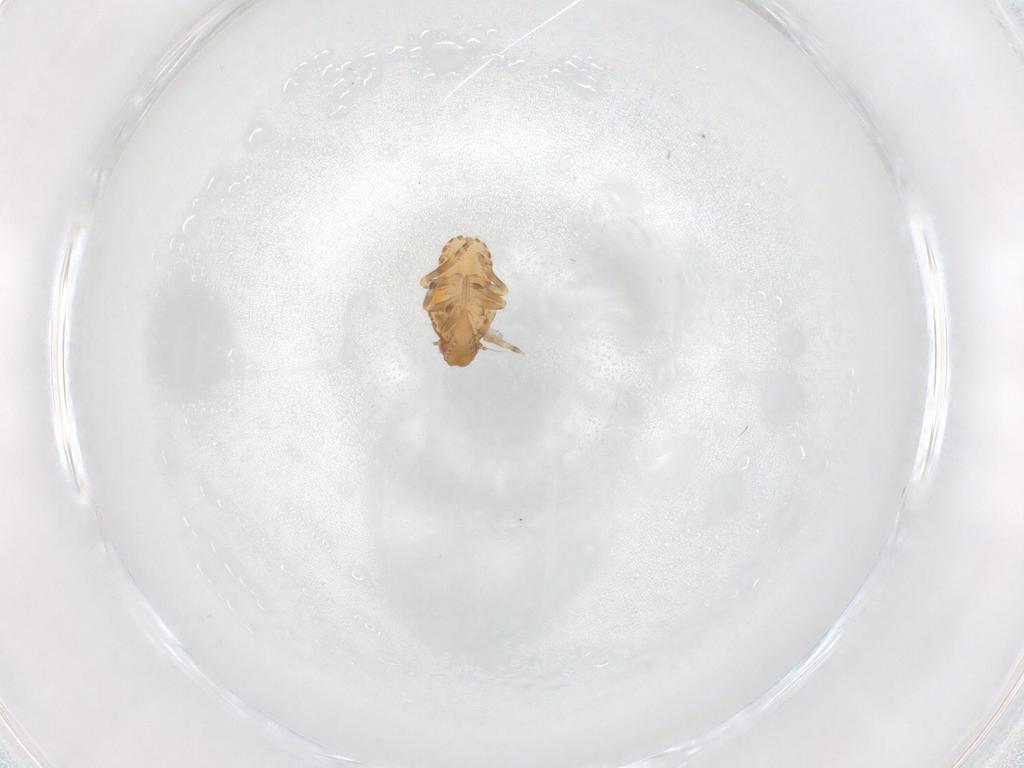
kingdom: Animalia
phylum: Arthropoda
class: Insecta
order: Hemiptera
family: Flatidae
